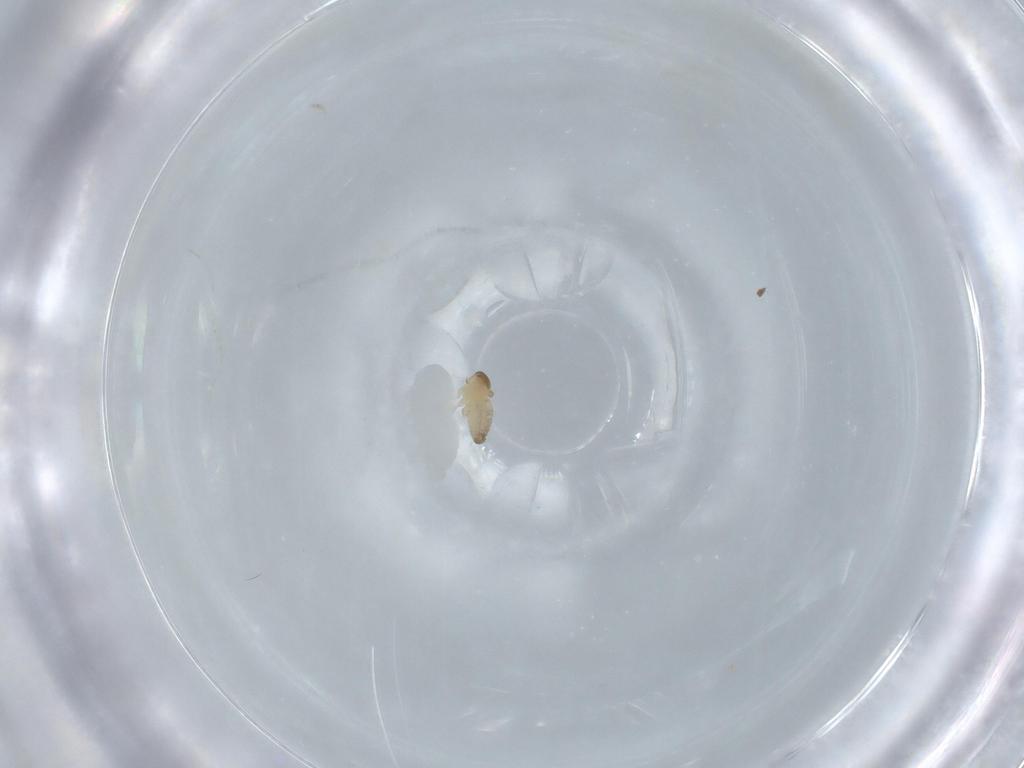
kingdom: Animalia
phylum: Arthropoda
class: Insecta
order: Diptera
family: Cecidomyiidae
